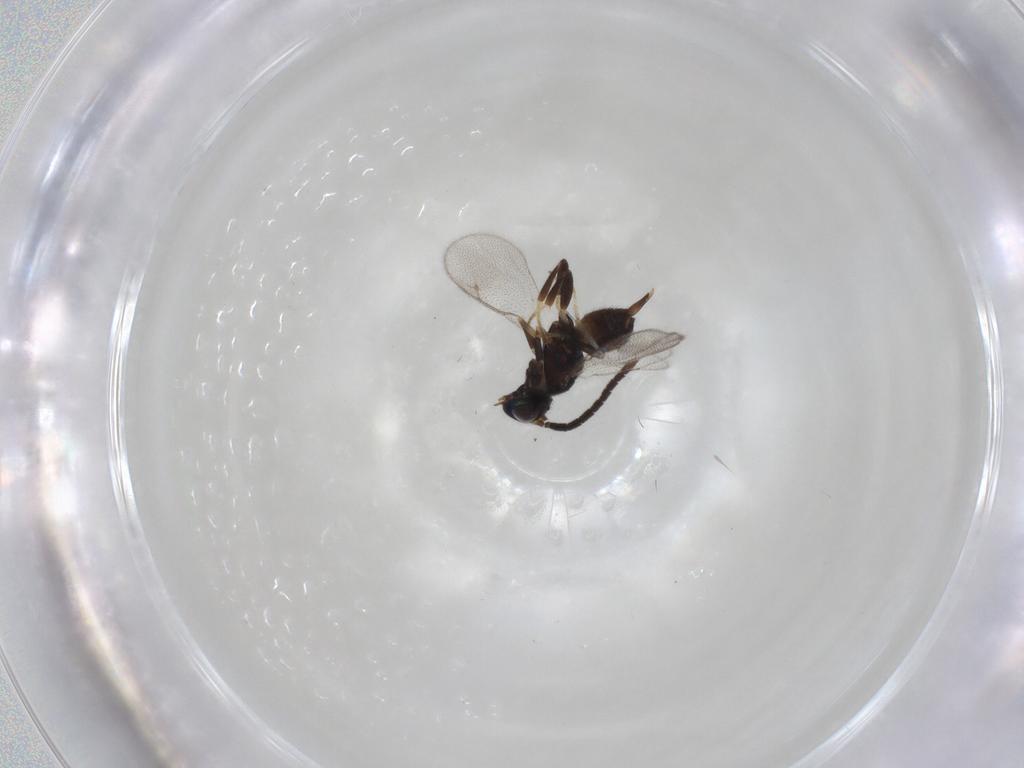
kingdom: Animalia
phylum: Arthropoda
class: Insecta
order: Hymenoptera
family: Eupelmidae
